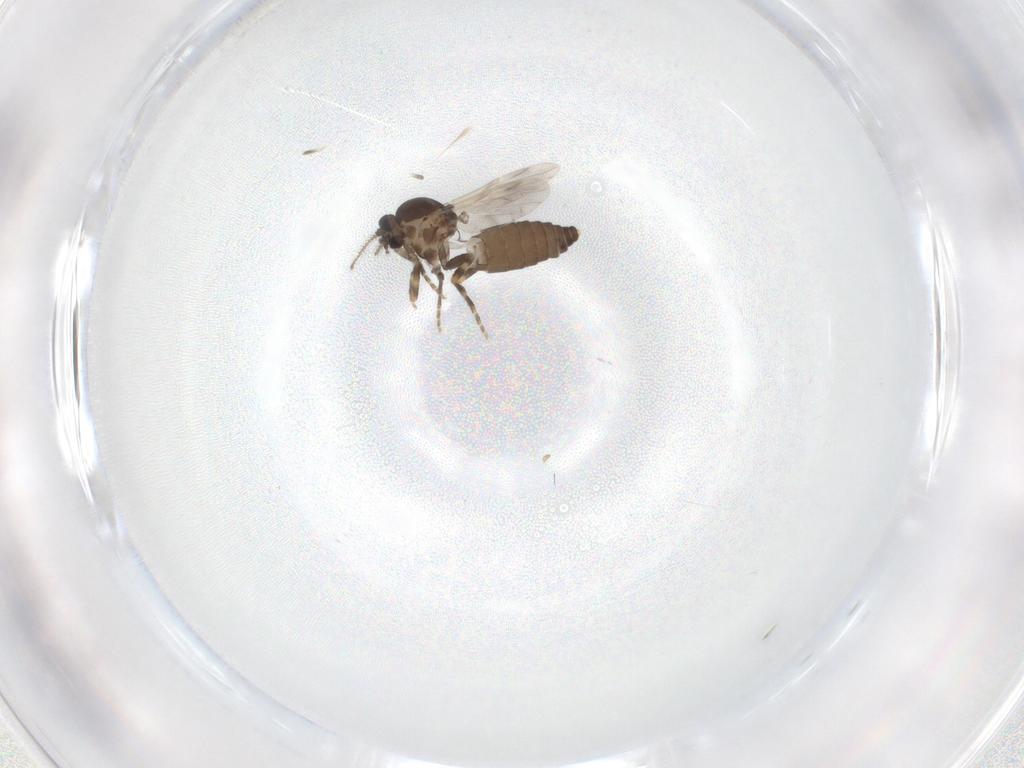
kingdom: Animalia
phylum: Arthropoda
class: Insecta
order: Diptera
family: Ceratopogonidae
